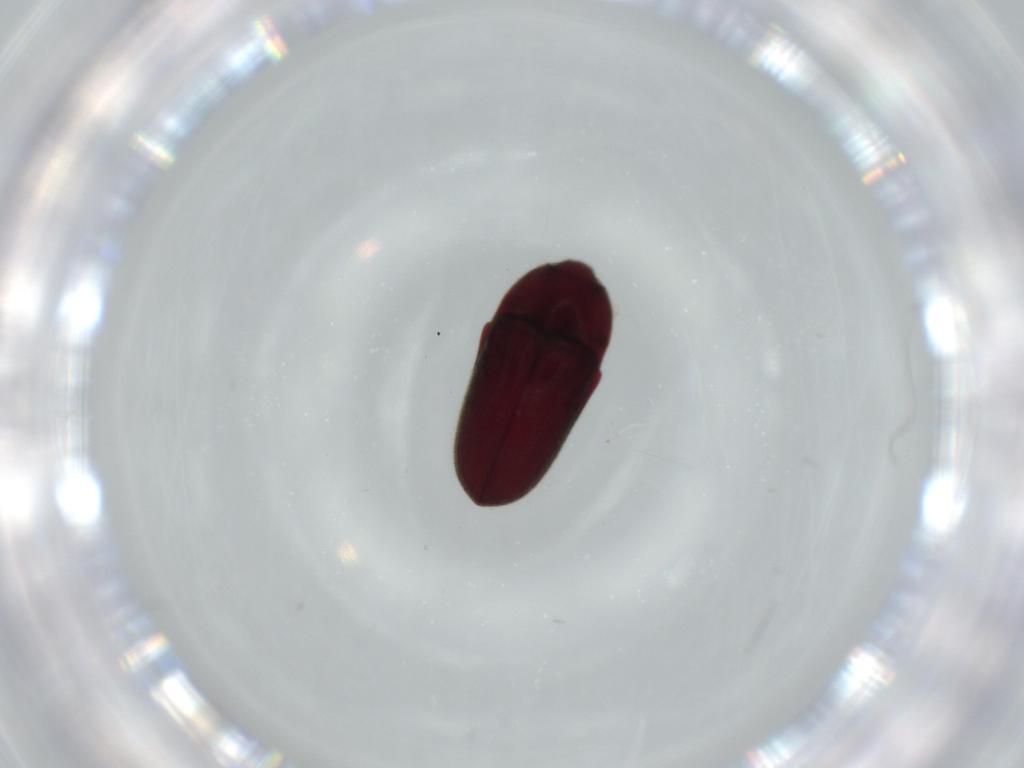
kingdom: Animalia
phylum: Arthropoda
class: Insecta
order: Coleoptera
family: Throscidae
